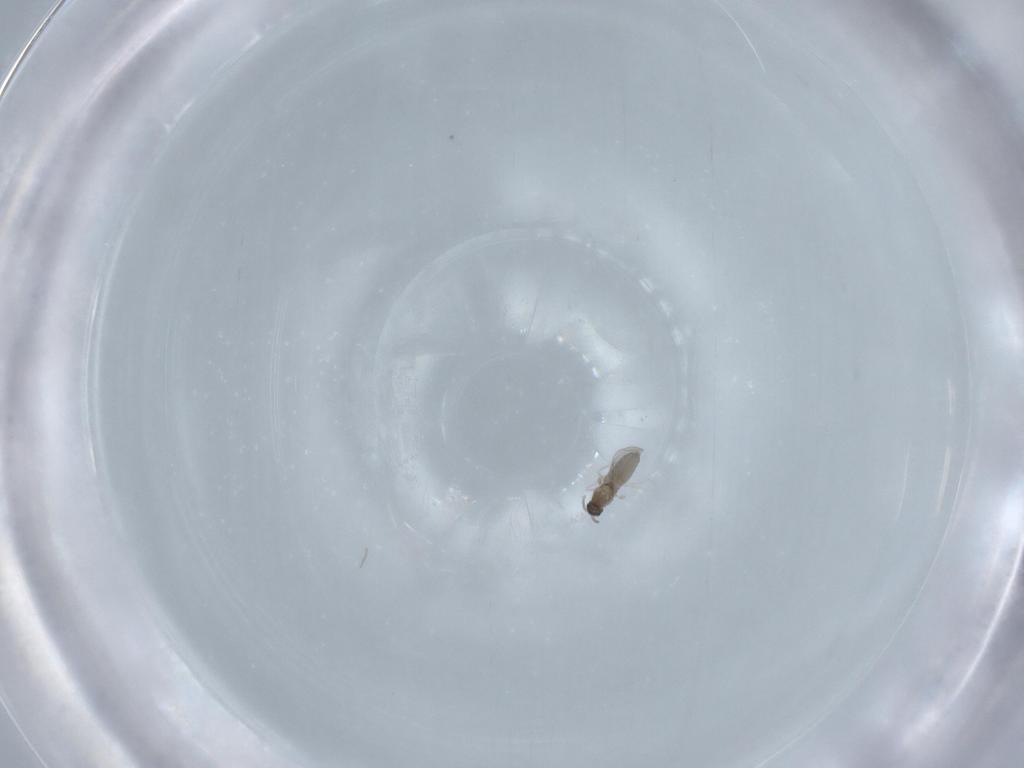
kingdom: Animalia
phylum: Arthropoda
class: Insecta
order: Diptera
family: Cecidomyiidae
